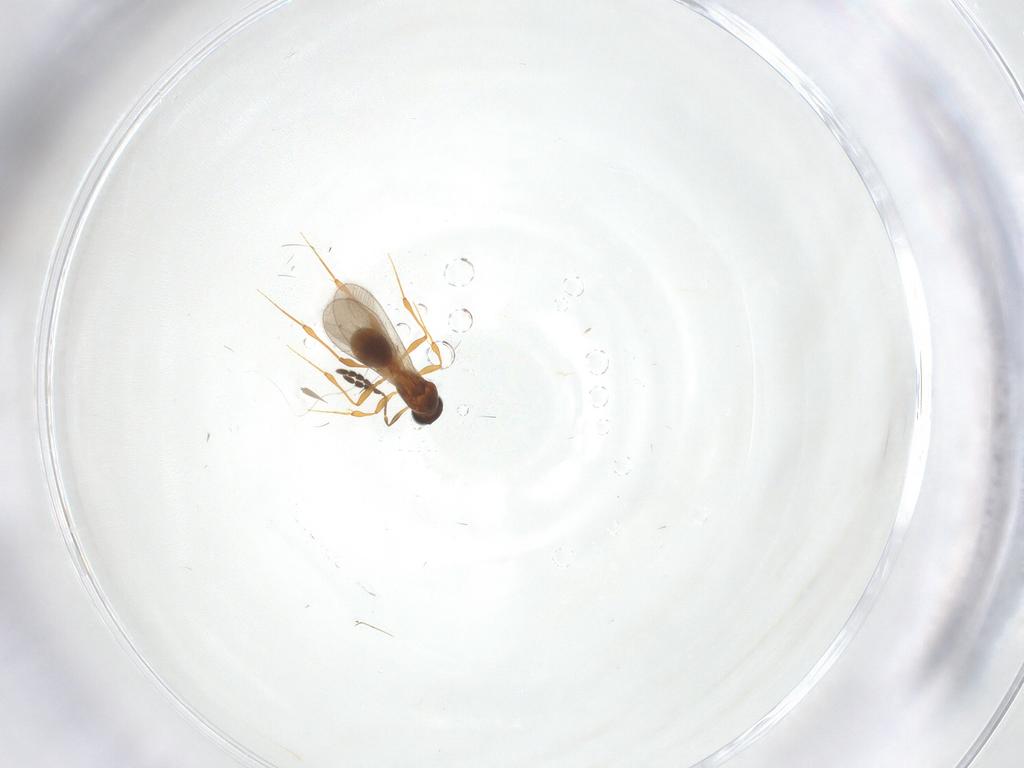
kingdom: Animalia
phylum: Arthropoda
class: Insecta
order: Hymenoptera
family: Platygastridae
